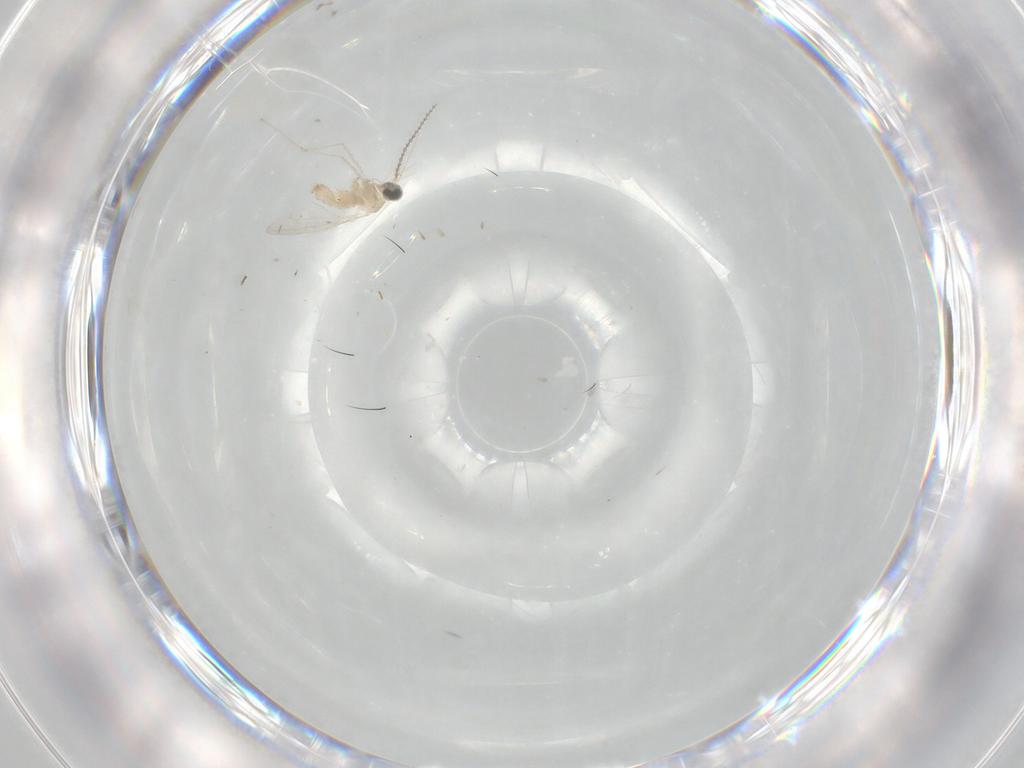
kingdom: Animalia
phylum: Arthropoda
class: Insecta
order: Diptera
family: Cecidomyiidae
